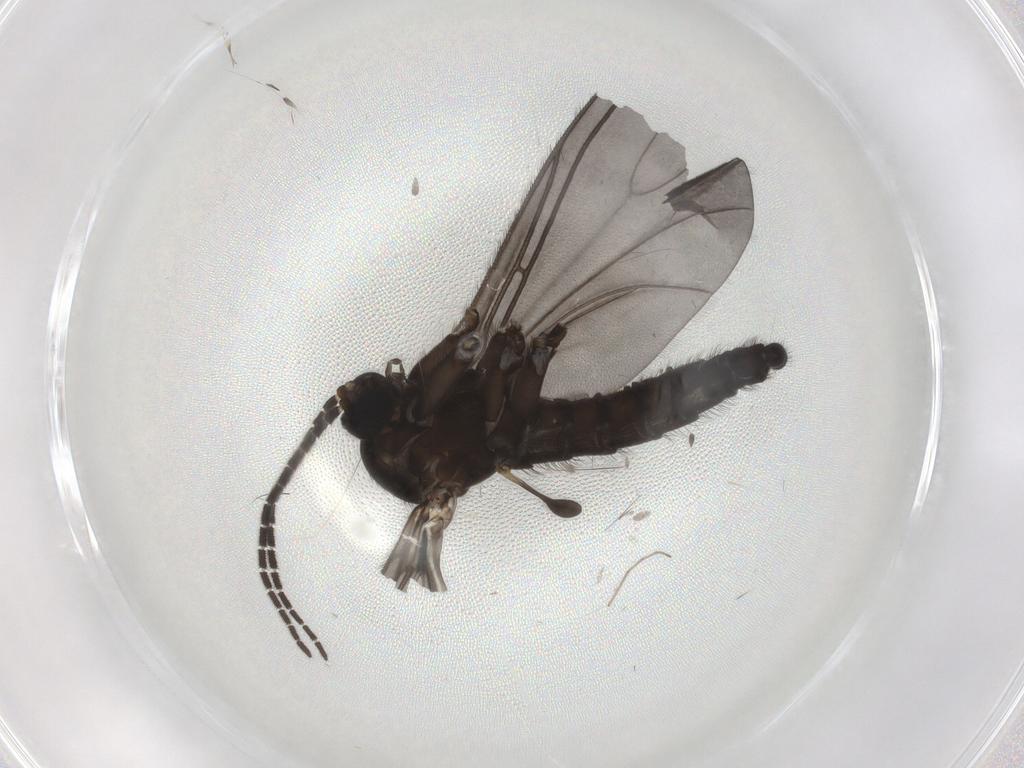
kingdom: Animalia
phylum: Arthropoda
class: Insecta
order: Diptera
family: Sciaridae
